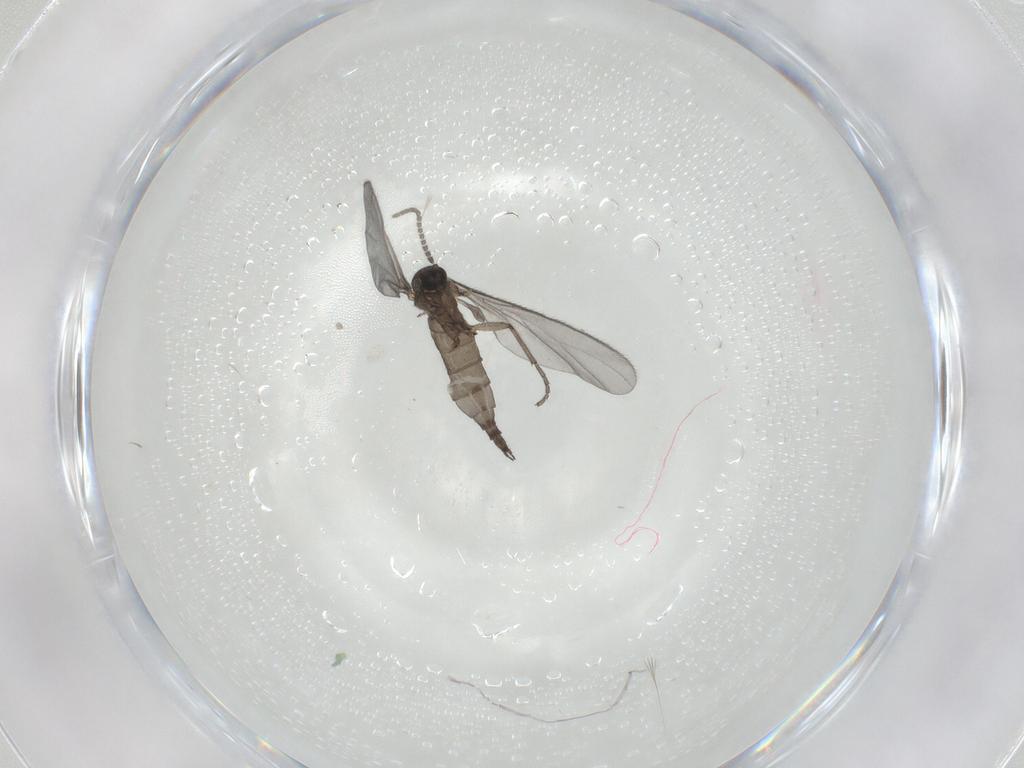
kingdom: Animalia
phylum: Arthropoda
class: Insecta
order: Diptera
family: Sciaridae
